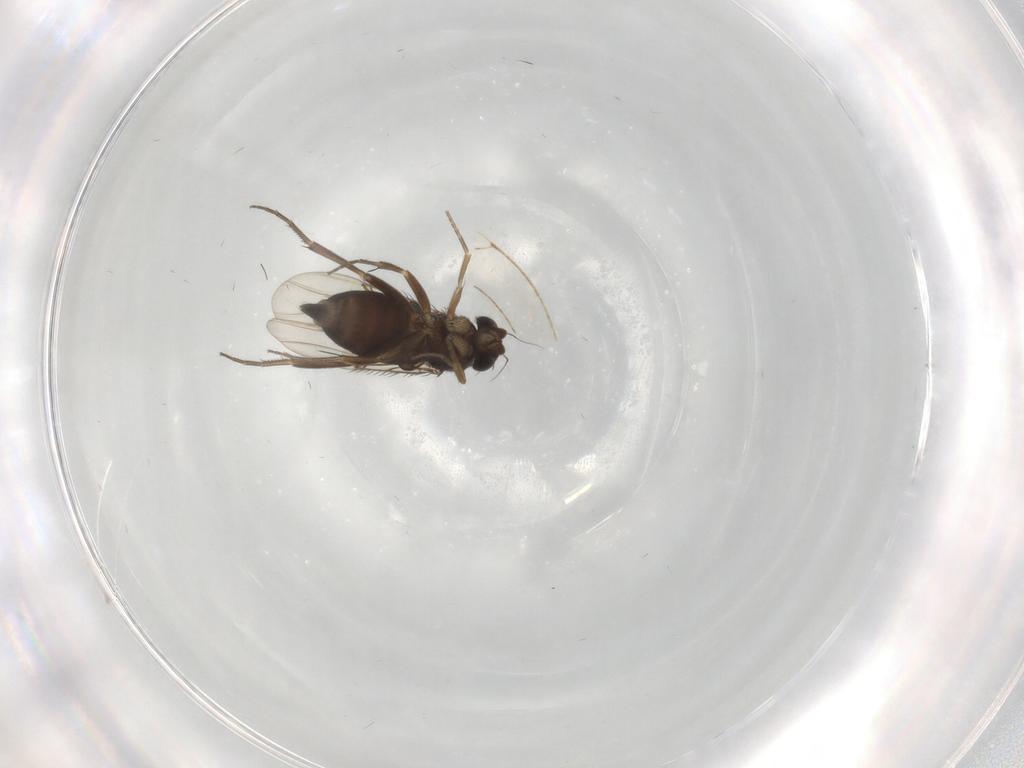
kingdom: Animalia
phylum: Arthropoda
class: Insecta
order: Diptera
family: Phoridae
